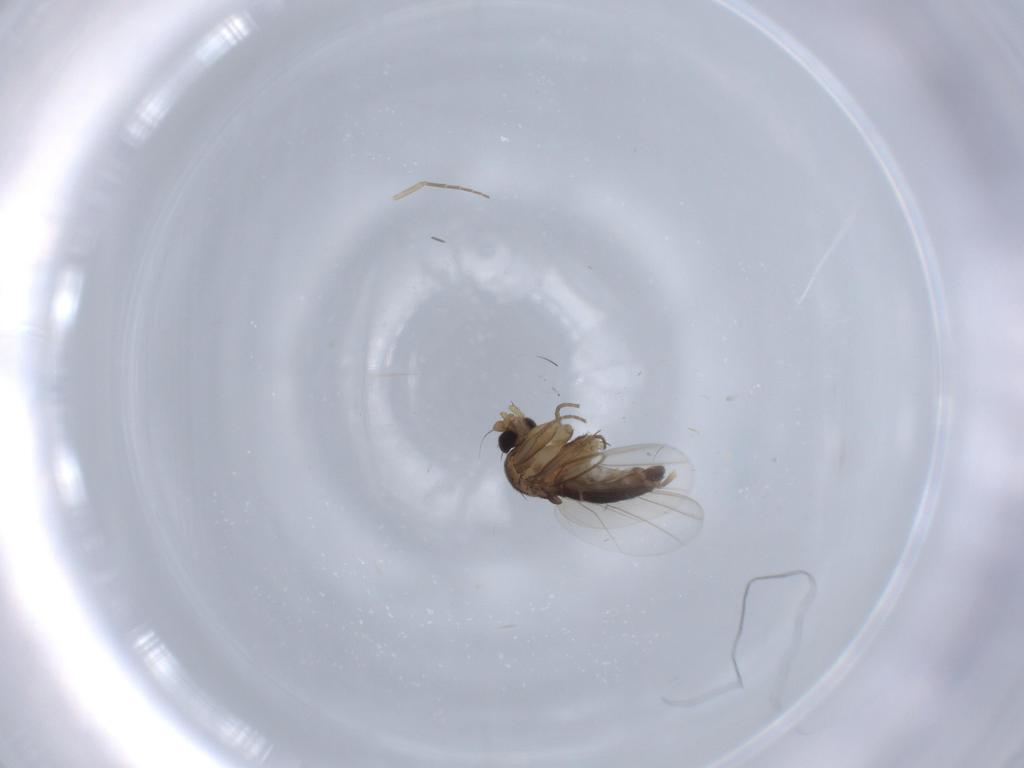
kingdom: Animalia
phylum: Arthropoda
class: Insecta
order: Diptera
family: Phoridae
